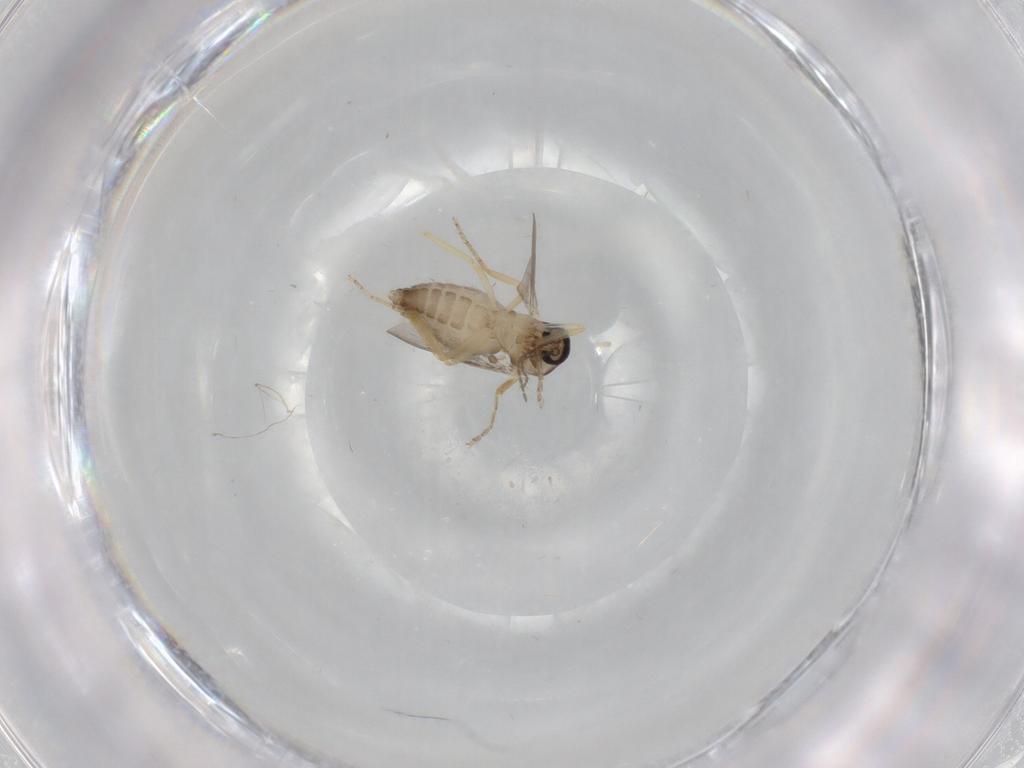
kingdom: Animalia
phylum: Arthropoda
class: Insecta
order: Diptera
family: Ceratopogonidae
